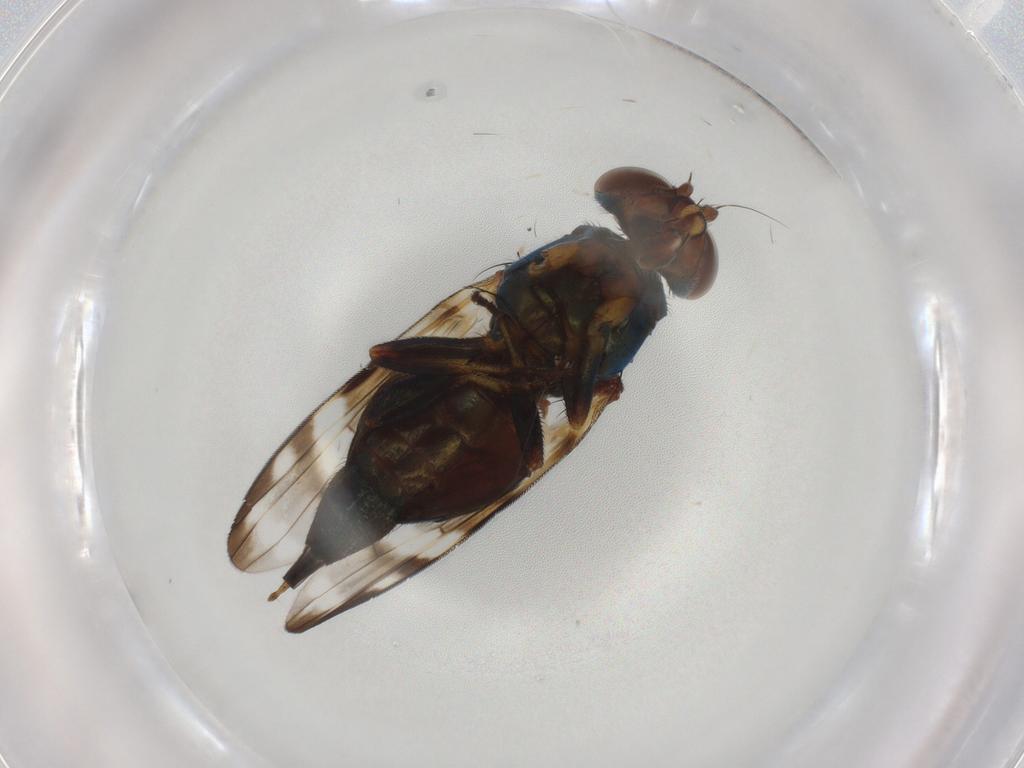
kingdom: Animalia
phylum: Arthropoda
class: Insecta
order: Diptera
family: Ulidiidae
